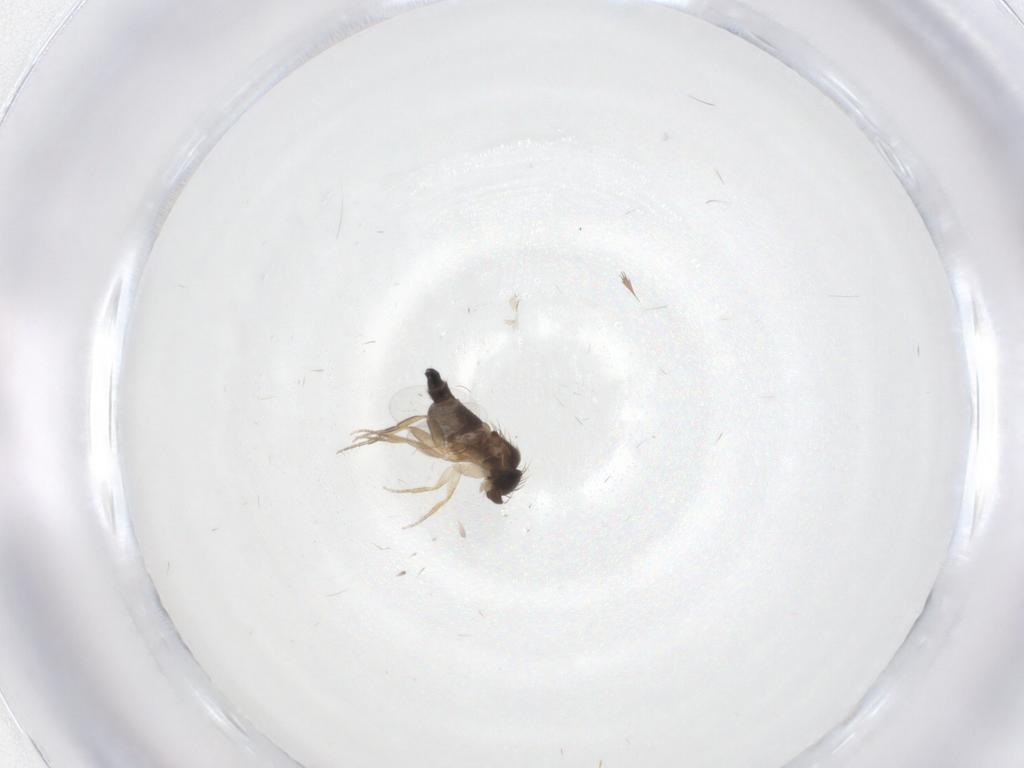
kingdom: Animalia
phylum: Arthropoda
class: Insecta
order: Diptera
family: Phoridae
